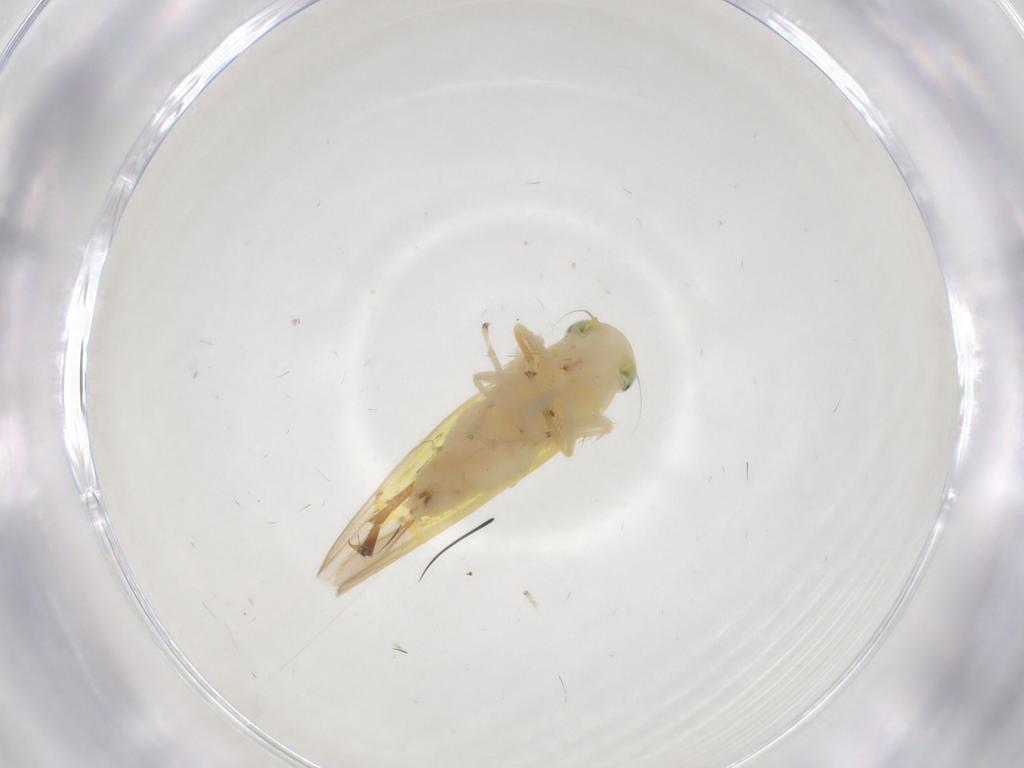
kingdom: Animalia
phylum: Arthropoda
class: Insecta
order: Hemiptera
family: Cicadellidae
